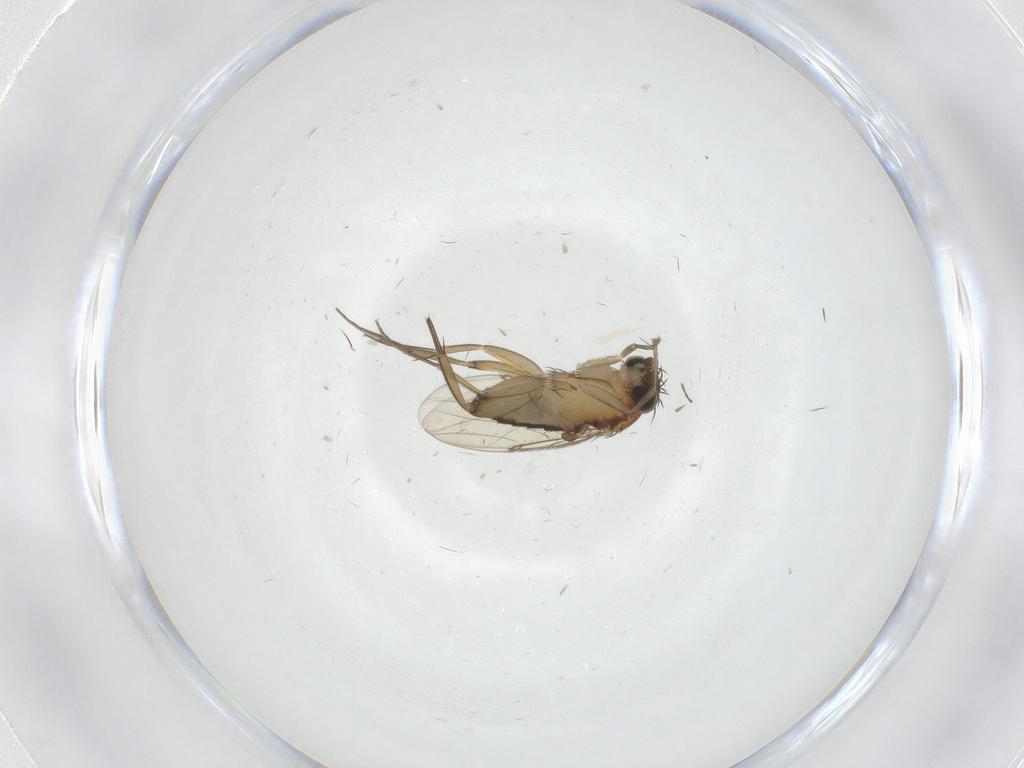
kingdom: Animalia
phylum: Arthropoda
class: Insecta
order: Diptera
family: Phoridae
